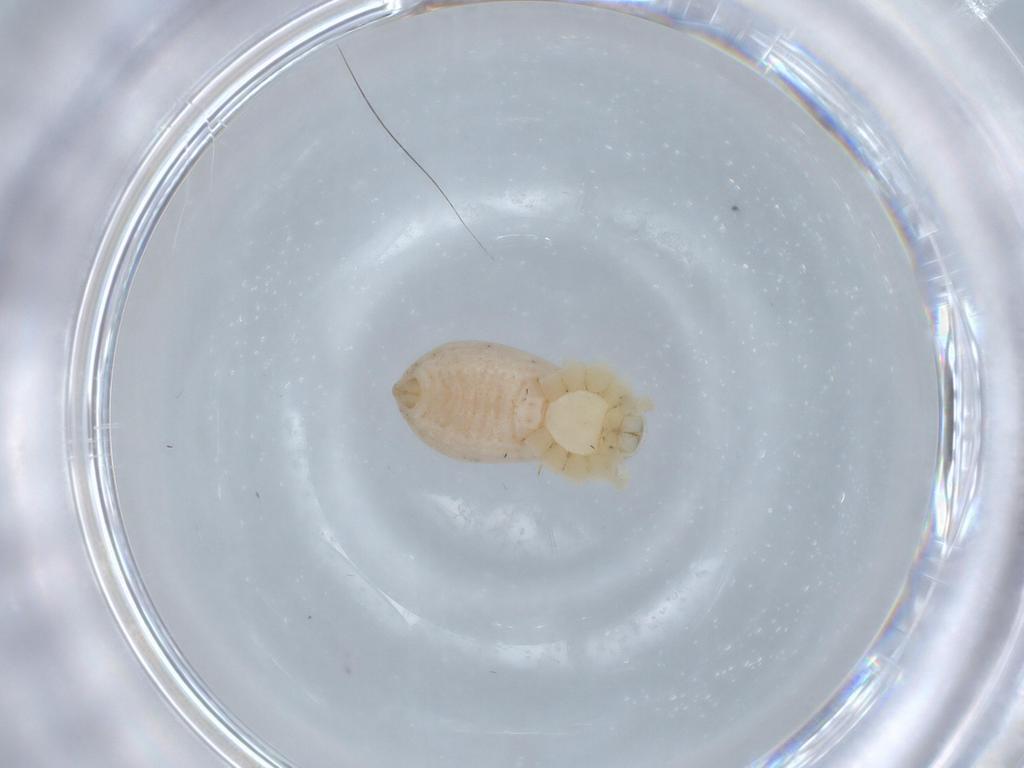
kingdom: Animalia
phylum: Arthropoda
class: Arachnida
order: Araneae
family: Thomisidae
